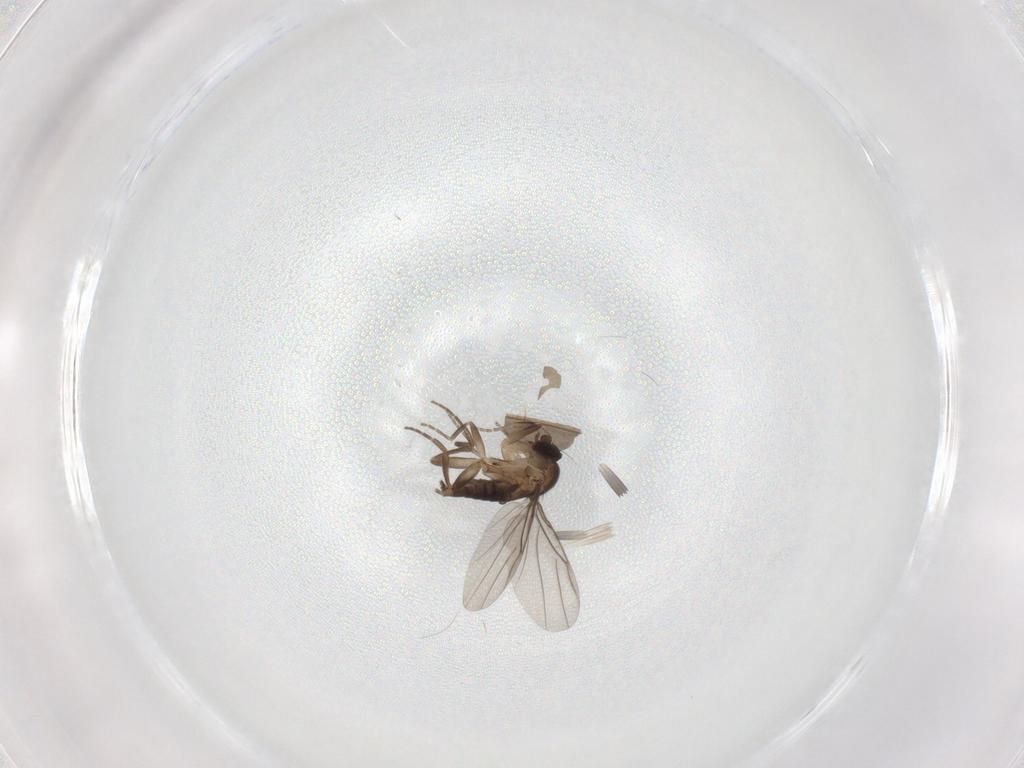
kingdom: Animalia
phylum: Arthropoda
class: Insecta
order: Diptera
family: Phoridae
